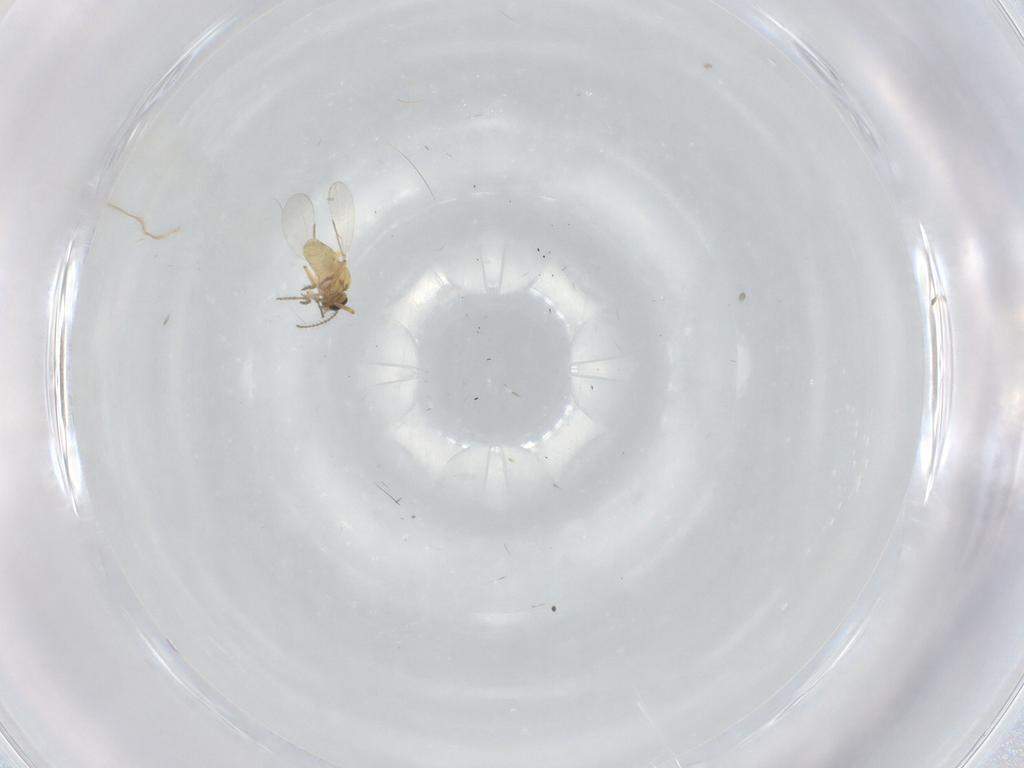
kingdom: Animalia
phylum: Arthropoda
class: Insecta
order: Diptera
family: Ceratopogonidae
